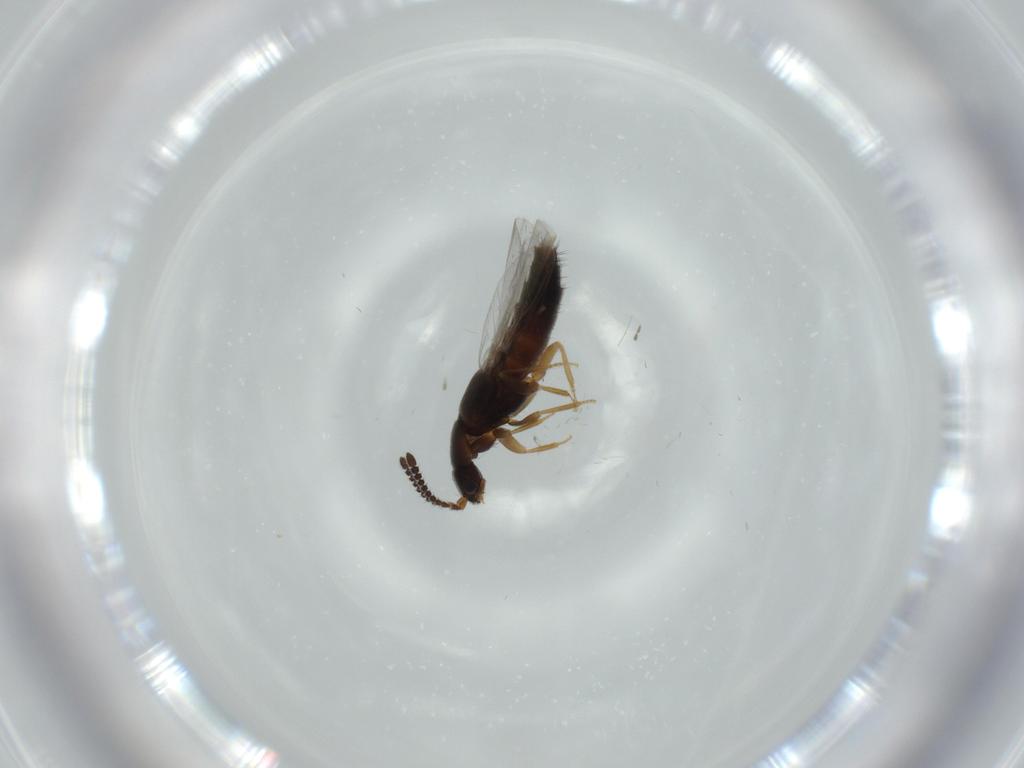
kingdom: Animalia
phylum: Arthropoda
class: Insecta
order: Coleoptera
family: Staphylinidae
